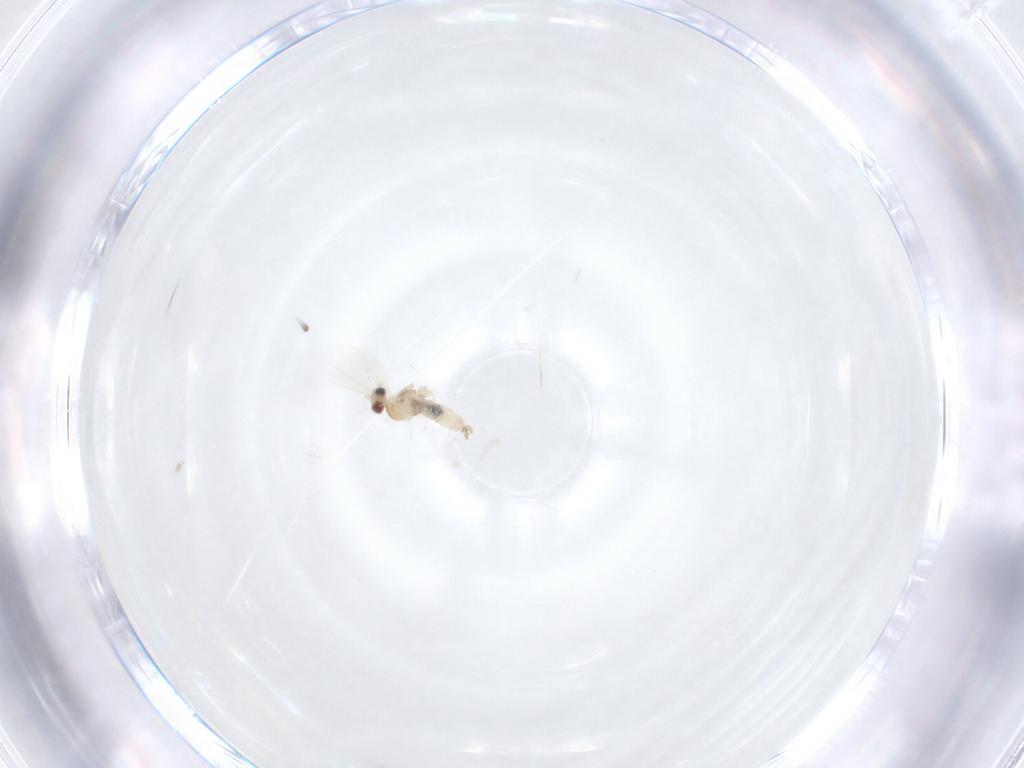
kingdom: Animalia
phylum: Arthropoda
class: Insecta
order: Diptera
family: Cecidomyiidae
